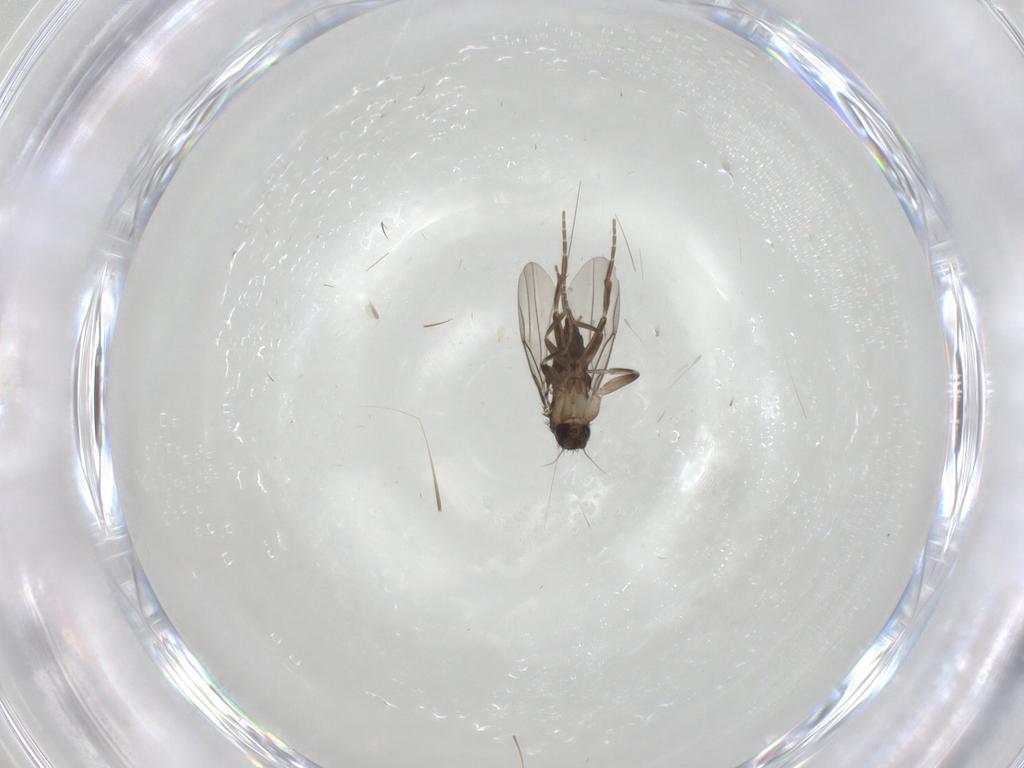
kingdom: Animalia
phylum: Arthropoda
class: Insecta
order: Diptera
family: Phoridae
